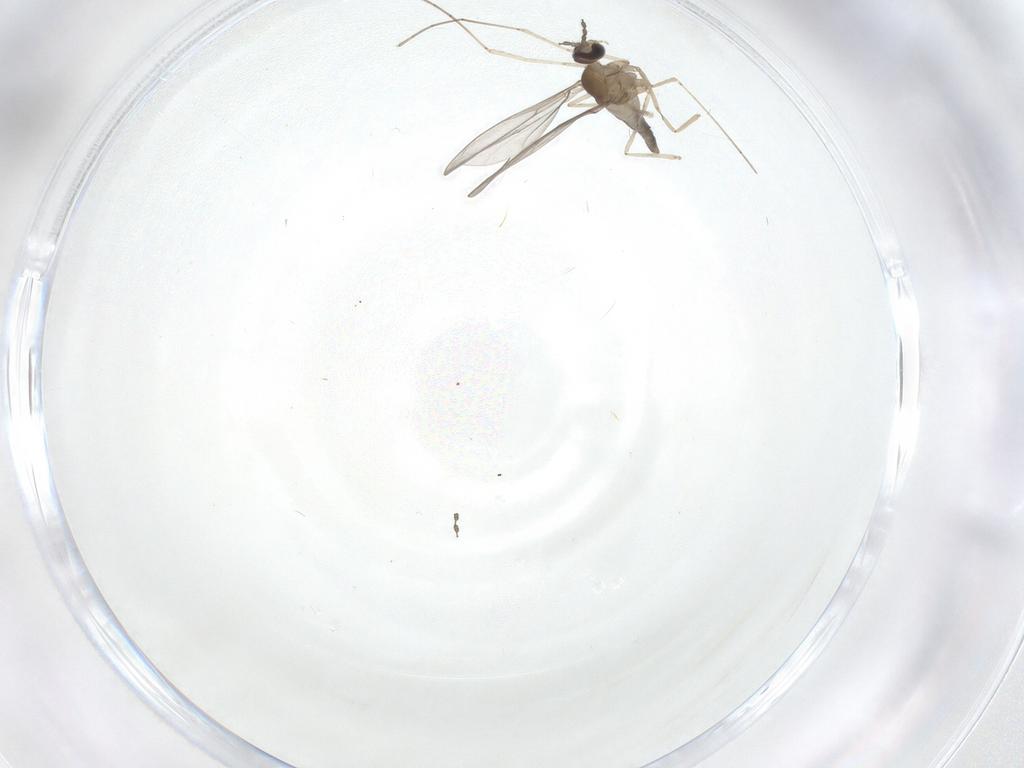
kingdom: Animalia
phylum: Arthropoda
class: Insecta
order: Diptera
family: Cecidomyiidae
